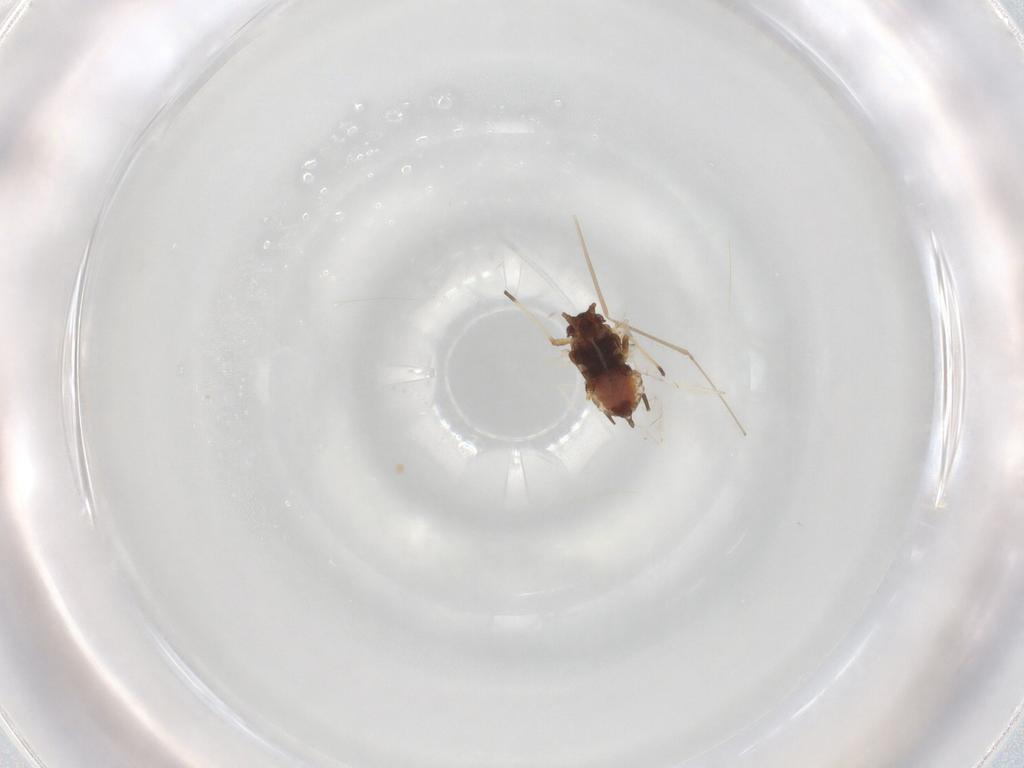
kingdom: Animalia
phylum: Arthropoda
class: Insecta
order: Hemiptera
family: Aphididae
